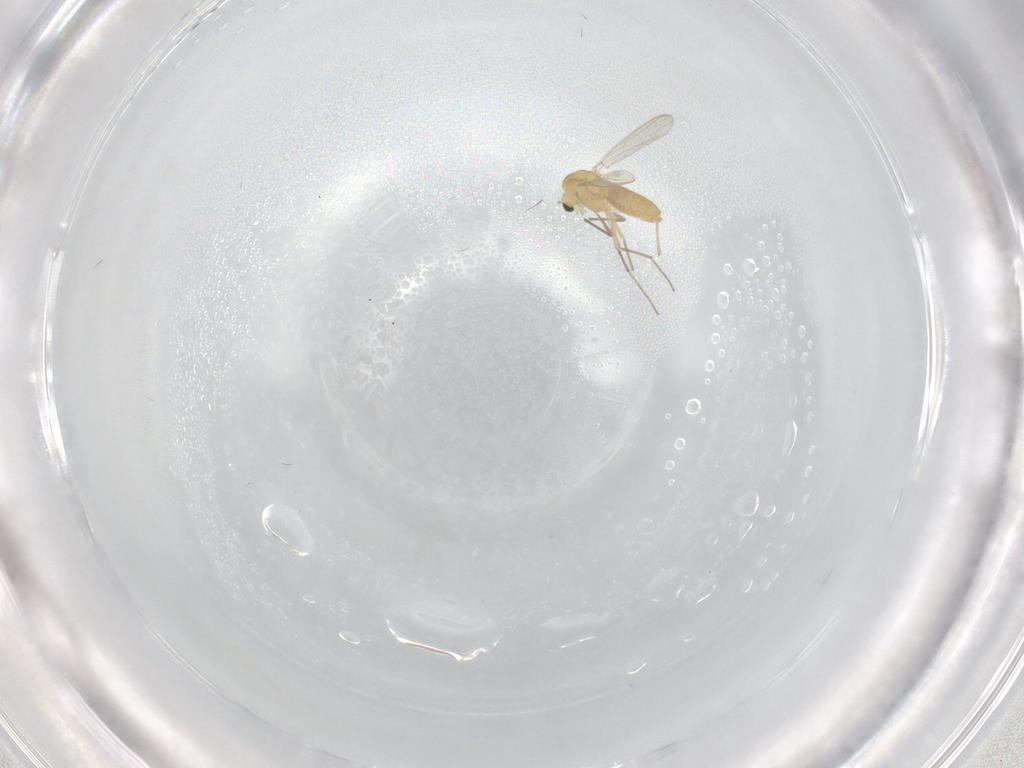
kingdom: Animalia
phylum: Arthropoda
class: Insecta
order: Diptera
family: Chironomidae
